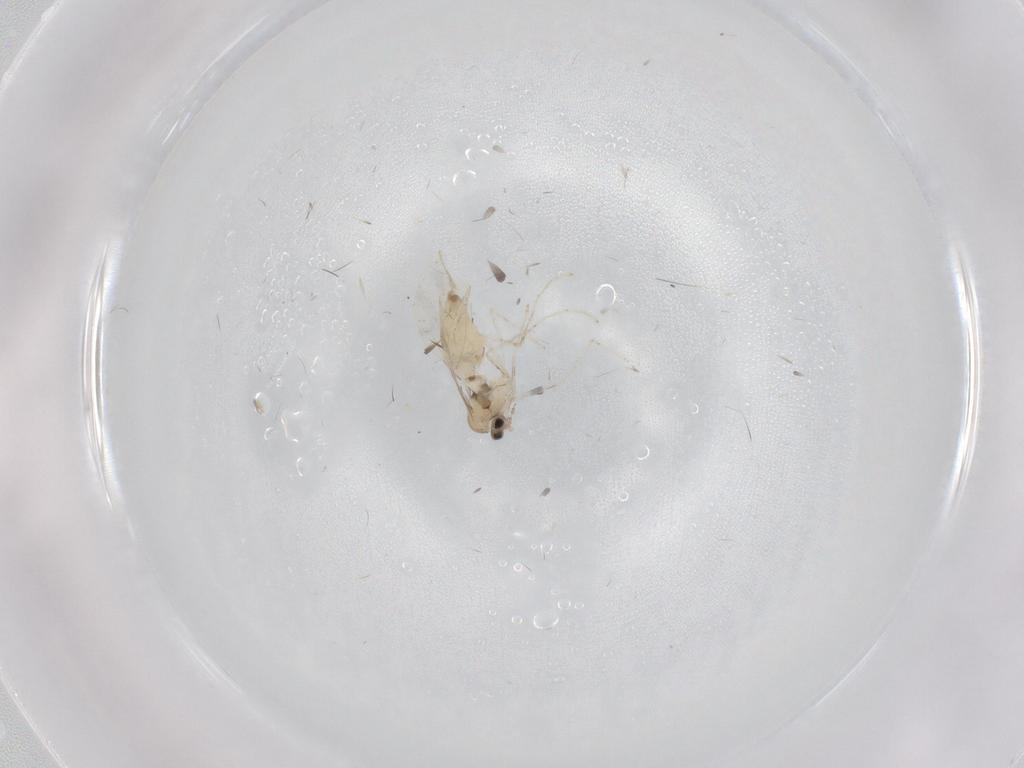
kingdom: Animalia
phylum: Arthropoda
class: Insecta
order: Diptera
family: Cecidomyiidae
